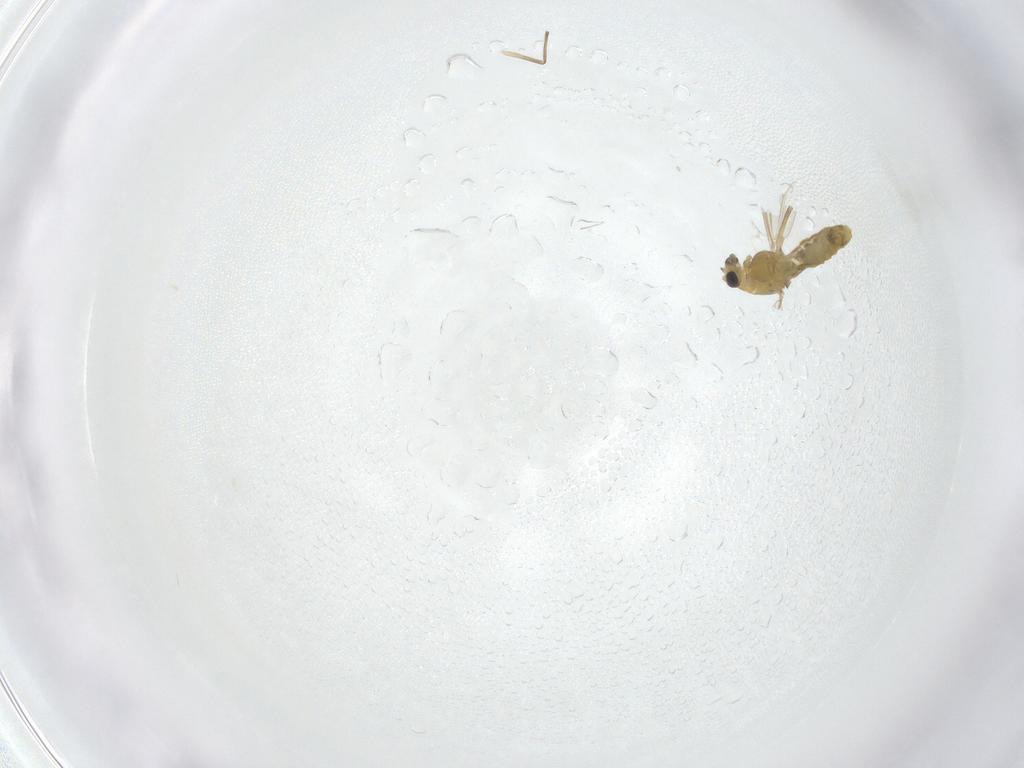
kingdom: Animalia
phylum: Arthropoda
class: Insecta
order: Diptera
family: Chironomidae
